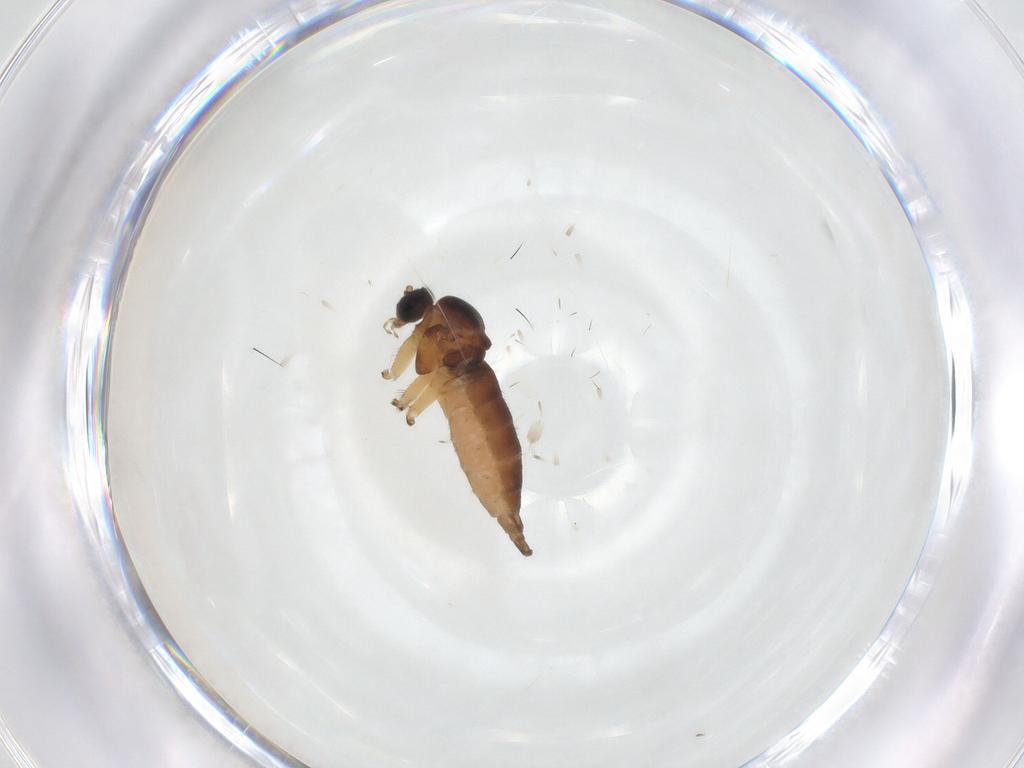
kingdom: Animalia
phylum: Arthropoda
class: Insecta
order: Diptera
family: Sciaridae
